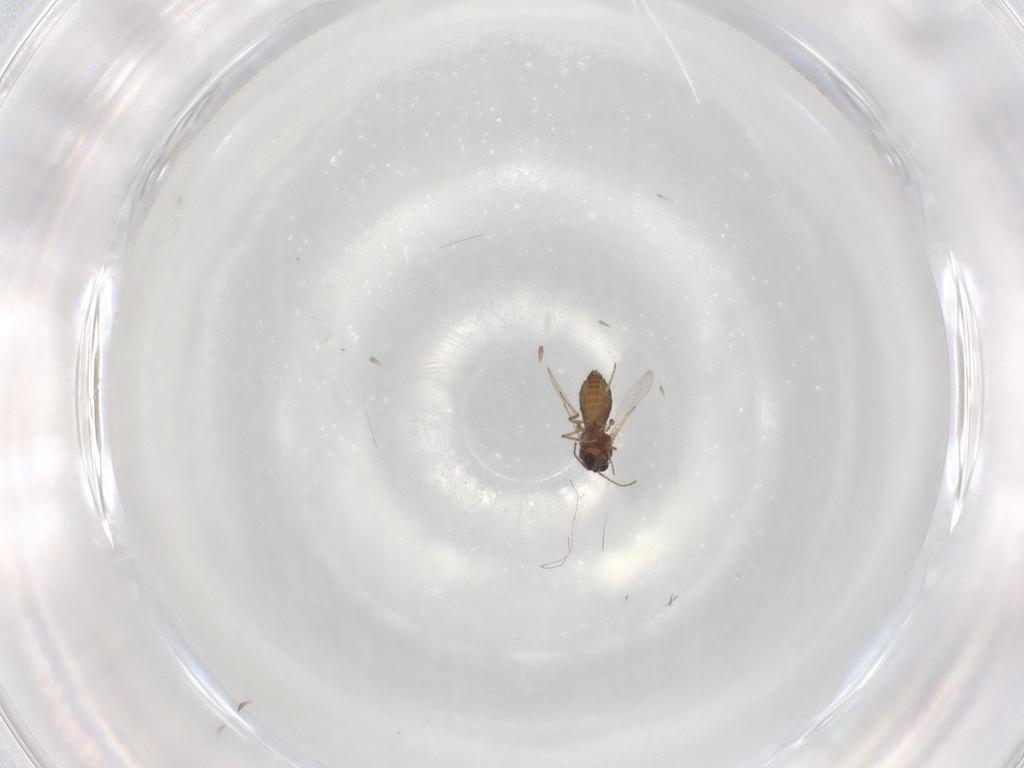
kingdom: Animalia
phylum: Arthropoda
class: Insecta
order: Diptera
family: Ceratopogonidae
